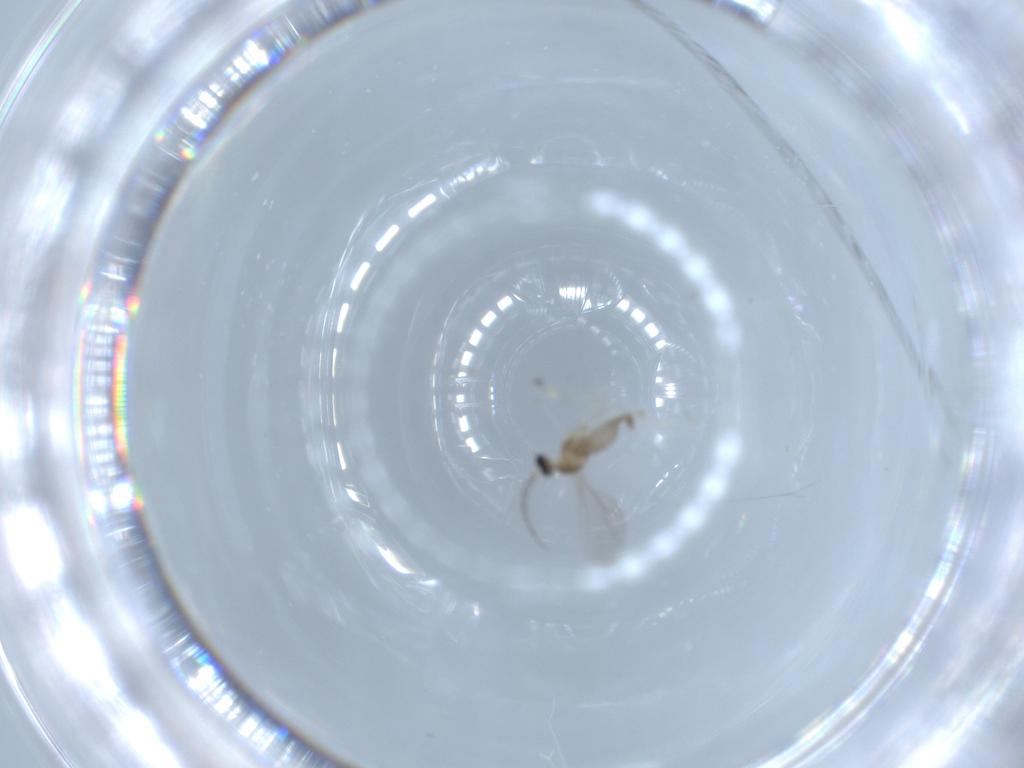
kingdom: Animalia
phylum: Arthropoda
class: Insecta
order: Diptera
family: Cecidomyiidae
